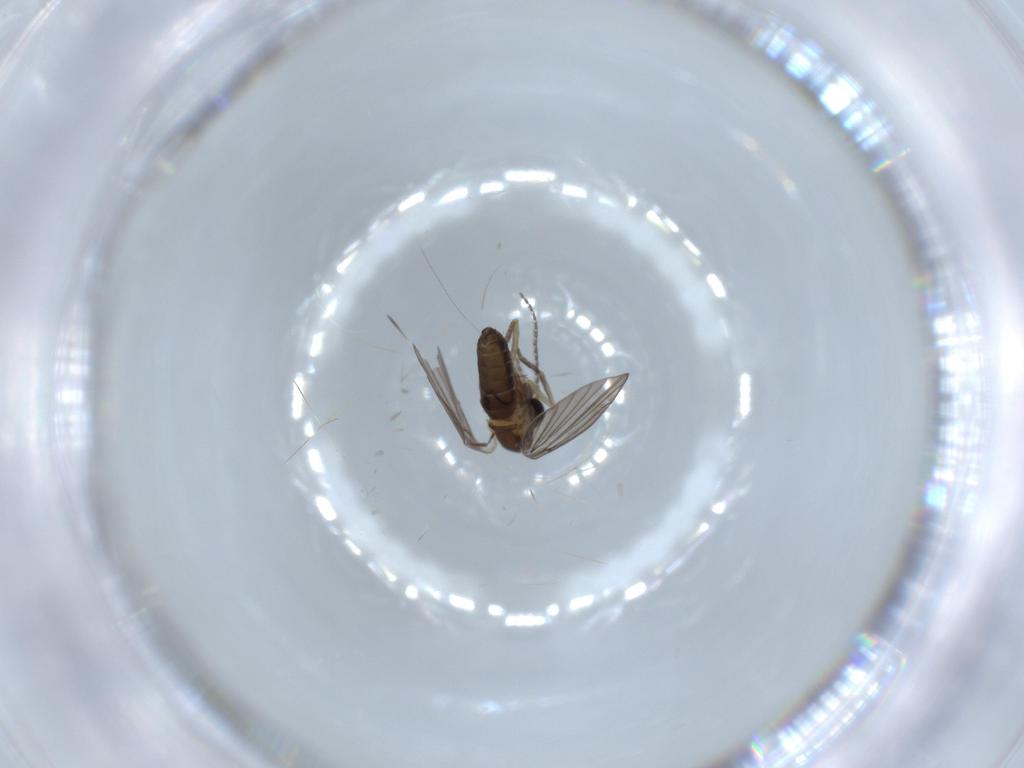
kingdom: Animalia
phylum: Arthropoda
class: Insecta
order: Diptera
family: Psychodidae
